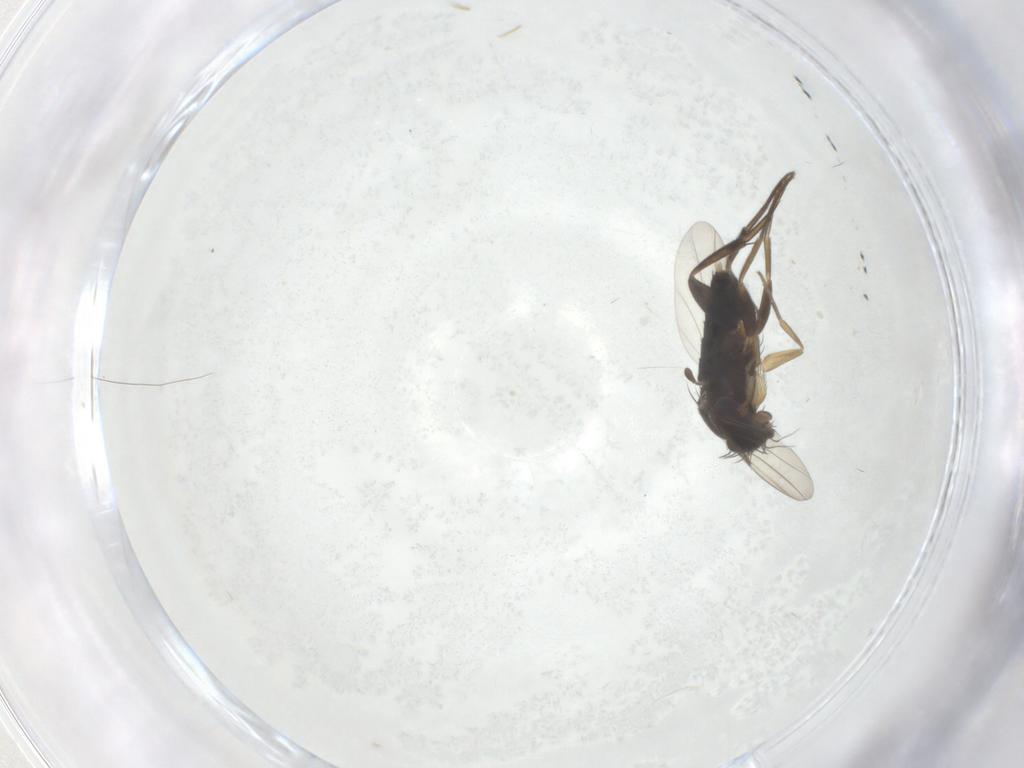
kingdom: Animalia
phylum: Arthropoda
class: Insecta
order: Diptera
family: Phoridae
